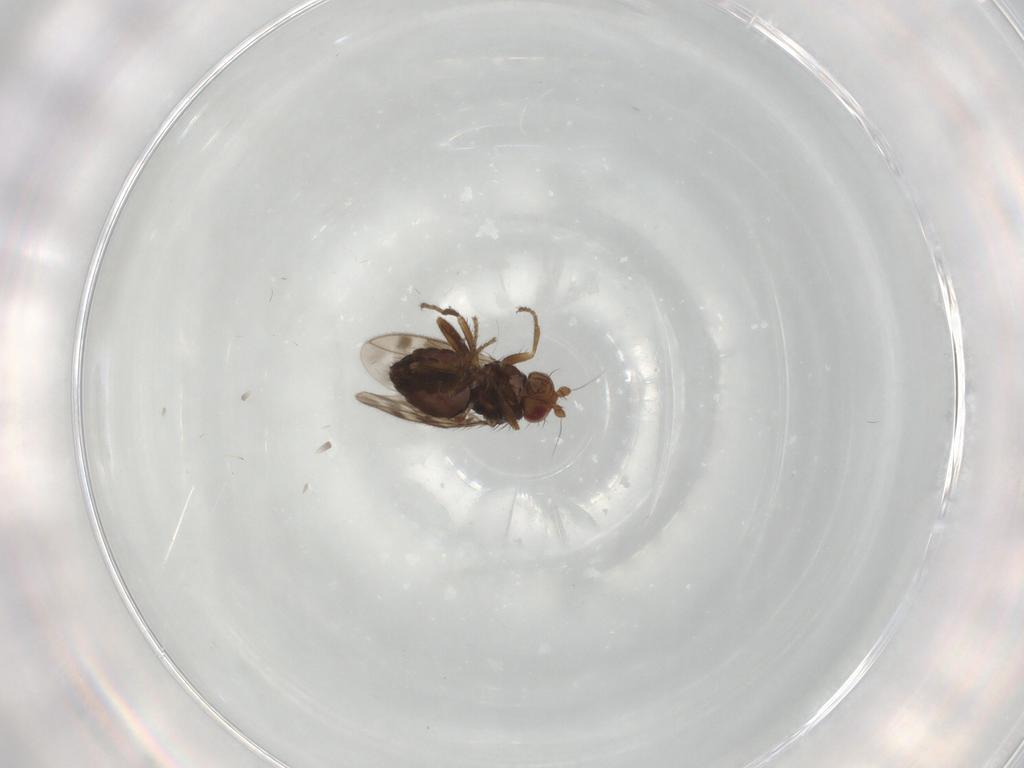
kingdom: Animalia
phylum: Arthropoda
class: Insecta
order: Diptera
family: Sphaeroceridae
